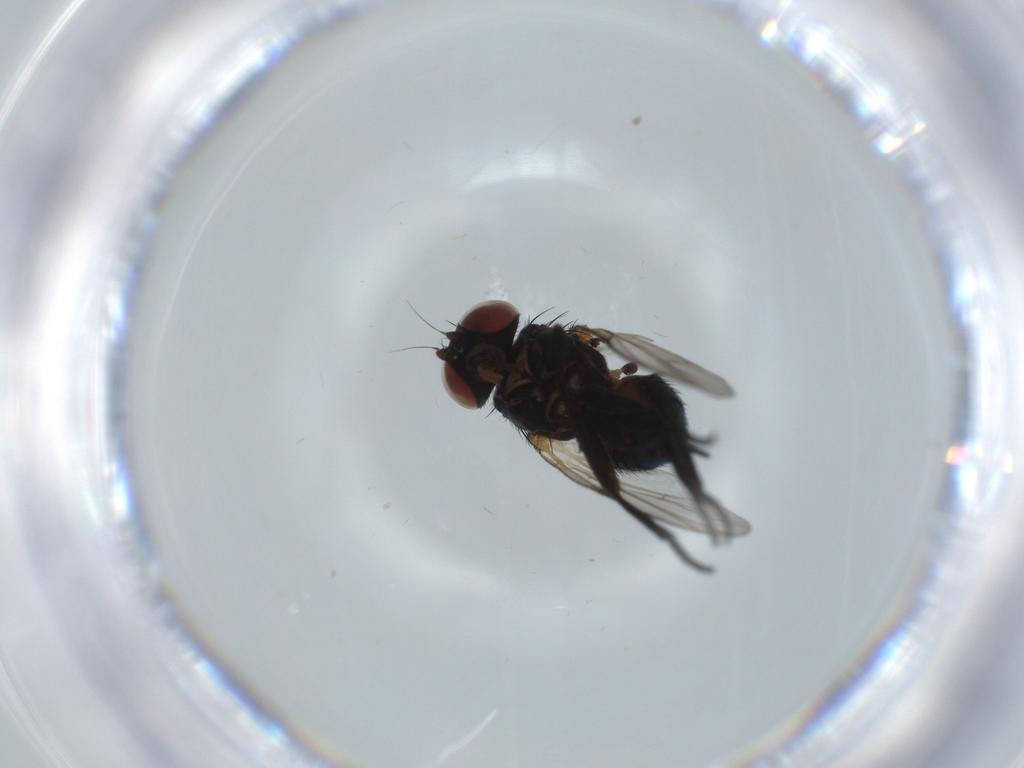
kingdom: Animalia
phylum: Arthropoda
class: Insecta
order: Diptera
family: Agromyzidae
